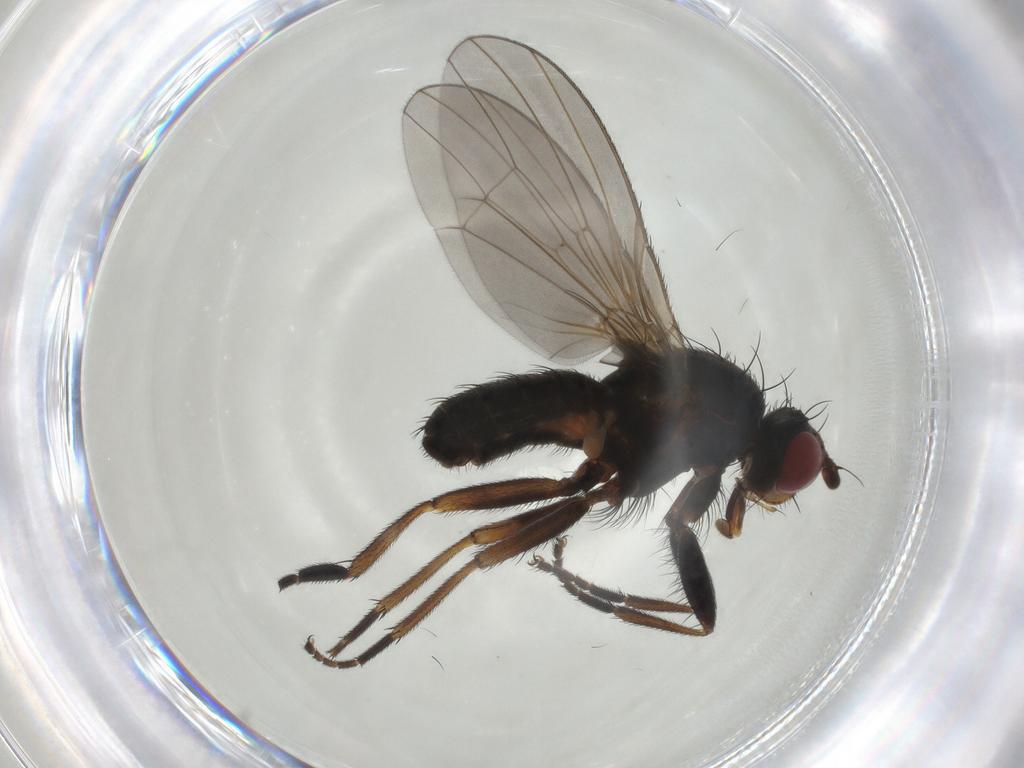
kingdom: Animalia
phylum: Arthropoda
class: Insecta
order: Diptera
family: Heleomyzidae
